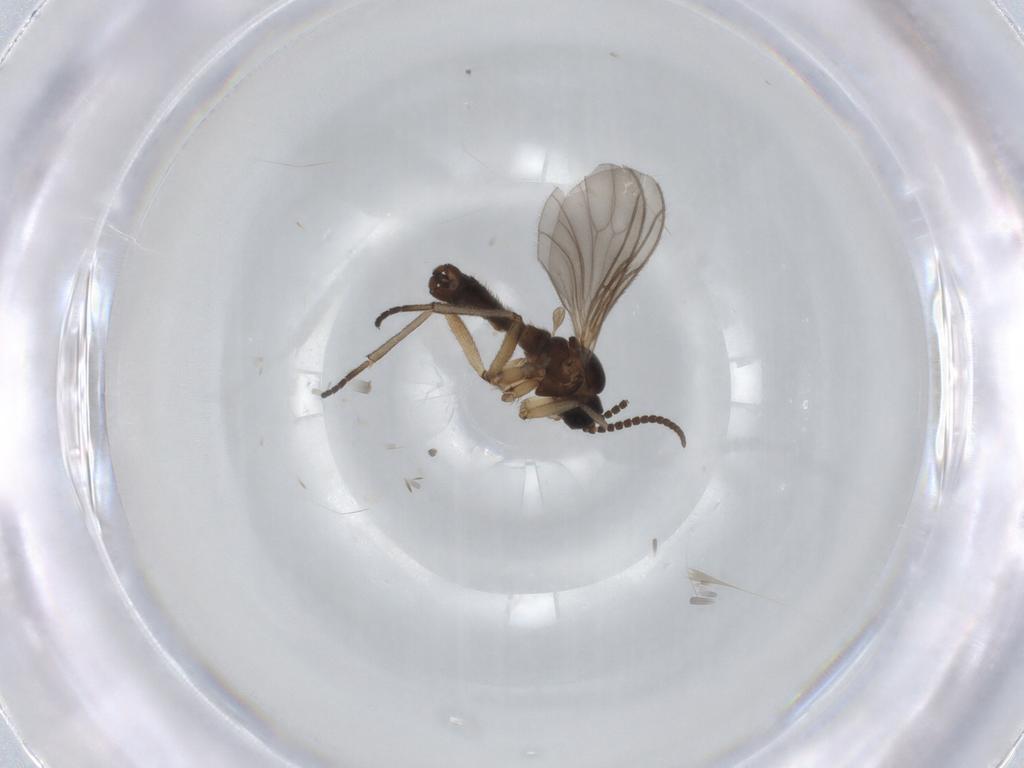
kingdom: Animalia
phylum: Arthropoda
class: Insecta
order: Diptera
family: Sciaridae
